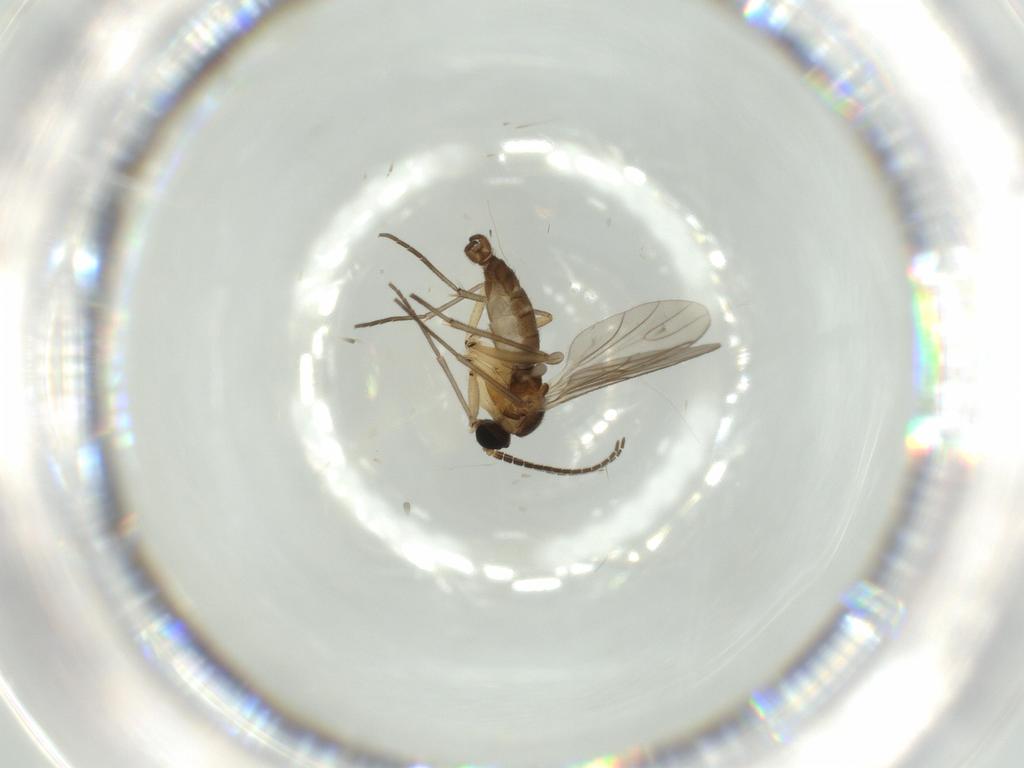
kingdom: Animalia
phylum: Arthropoda
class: Insecta
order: Diptera
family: Sciaridae
